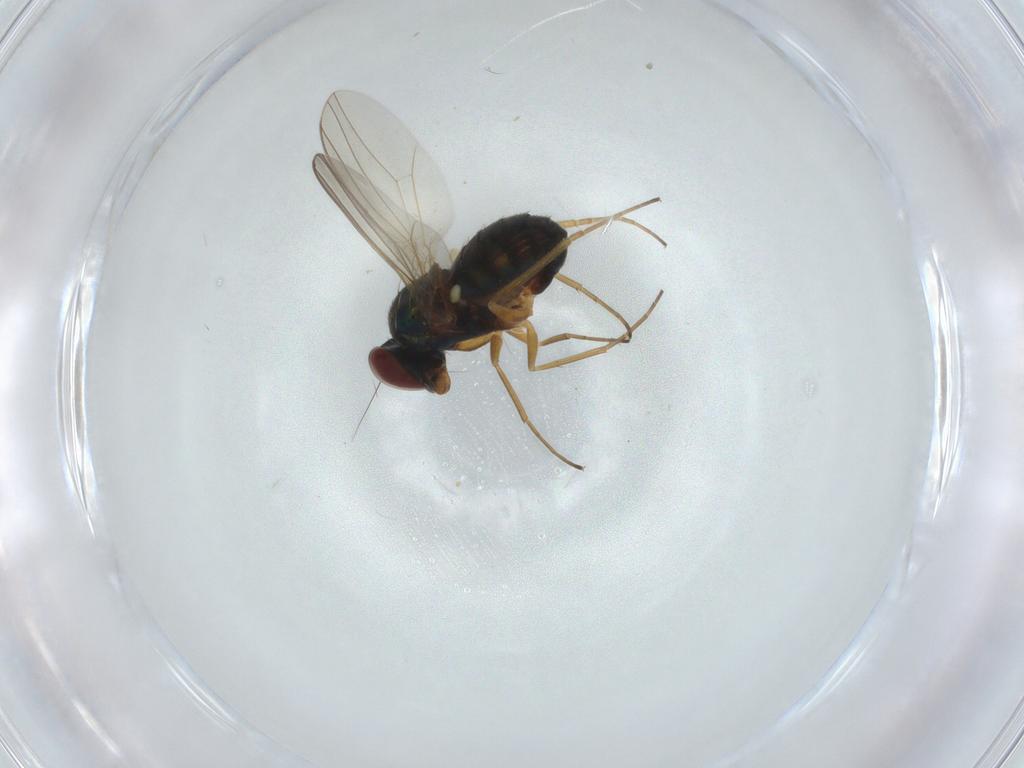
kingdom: Animalia
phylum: Arthropoda
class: Insecta
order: Diptera
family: Dolichopodidae
